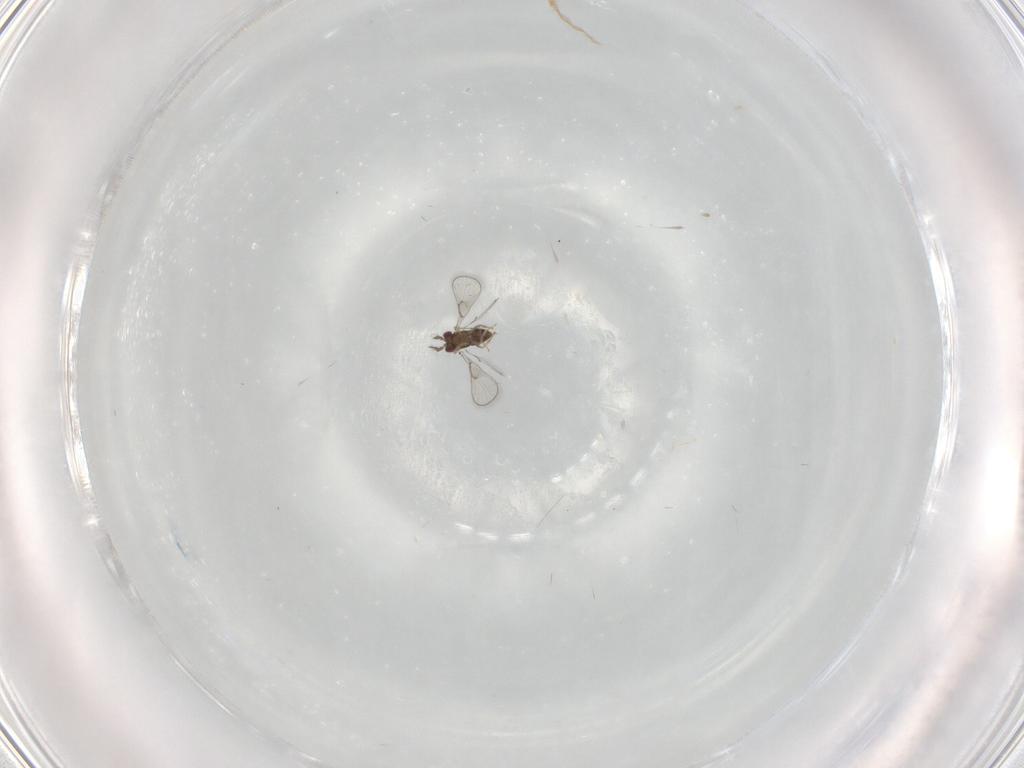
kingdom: Animalia
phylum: Arthropoda
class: Insecta
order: Hymenoptera
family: Trichogrammatidae
